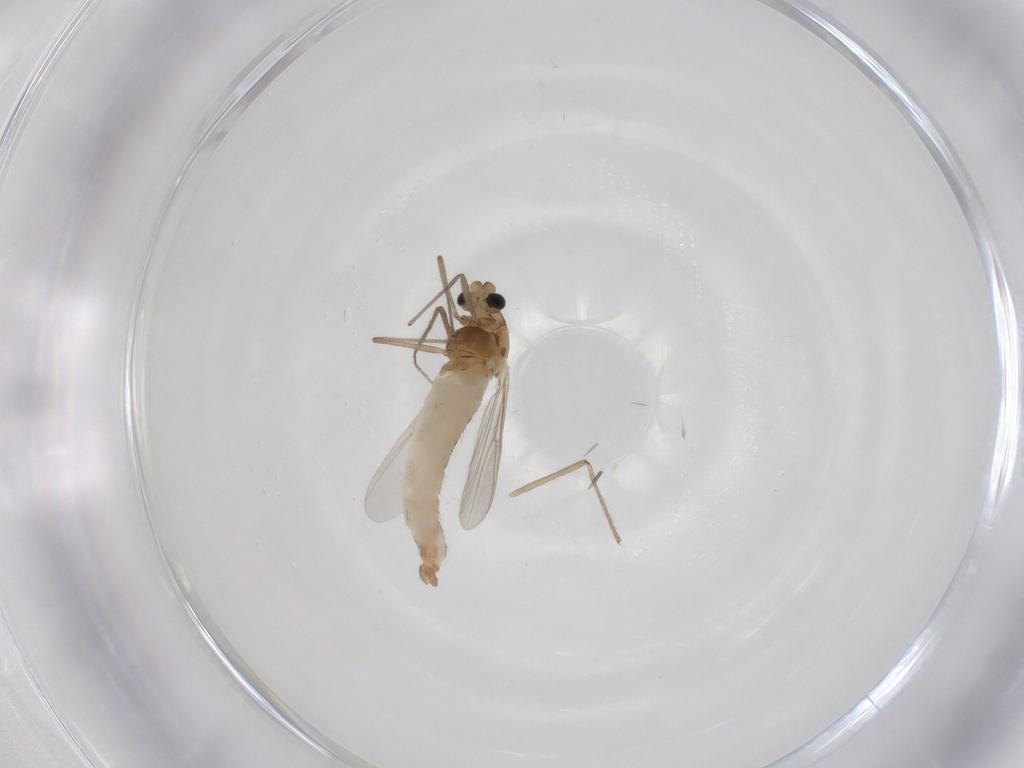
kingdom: Animalia
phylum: Arthropoda
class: Insecta
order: Diptera
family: Chironomidae
